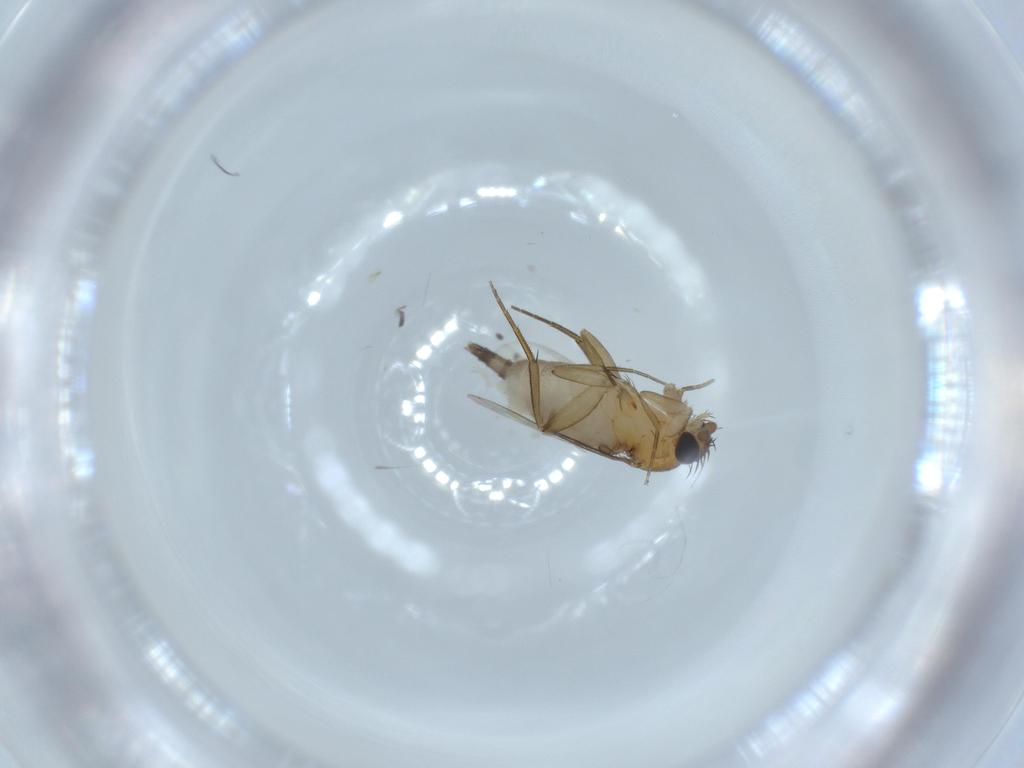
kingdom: Animalia
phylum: Arthropoda
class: Insecta
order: Diptera
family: Phoridae
